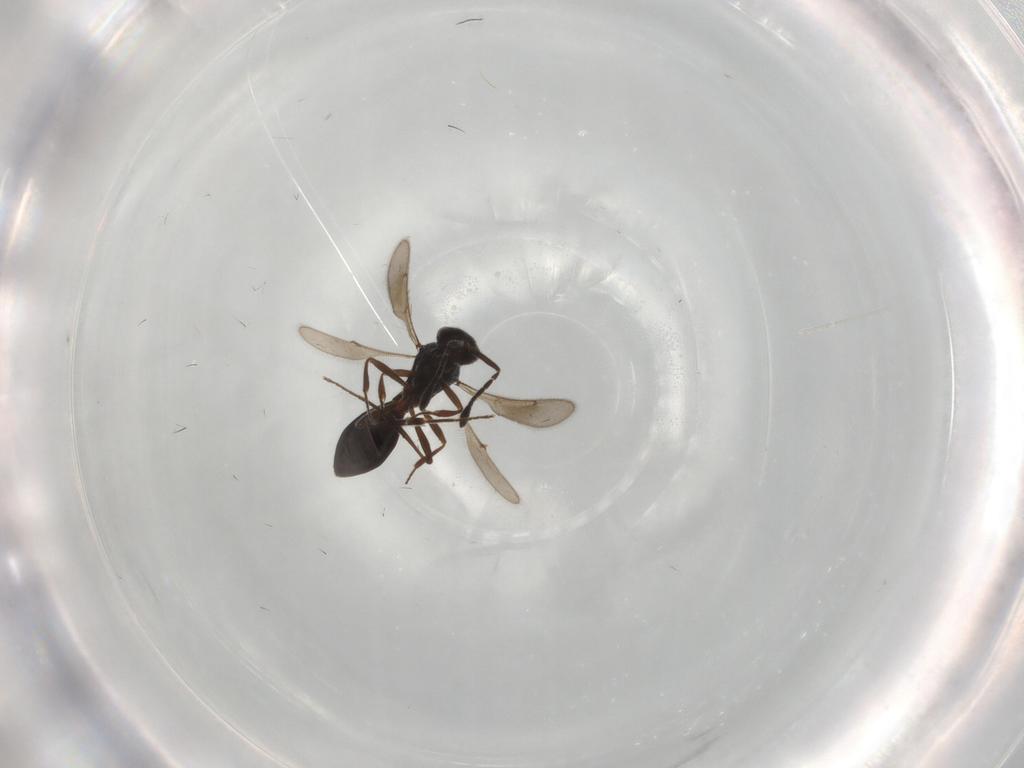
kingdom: Animalia
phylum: Arthropoda
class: Insecta
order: Hymenoptera
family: Scelionidae
